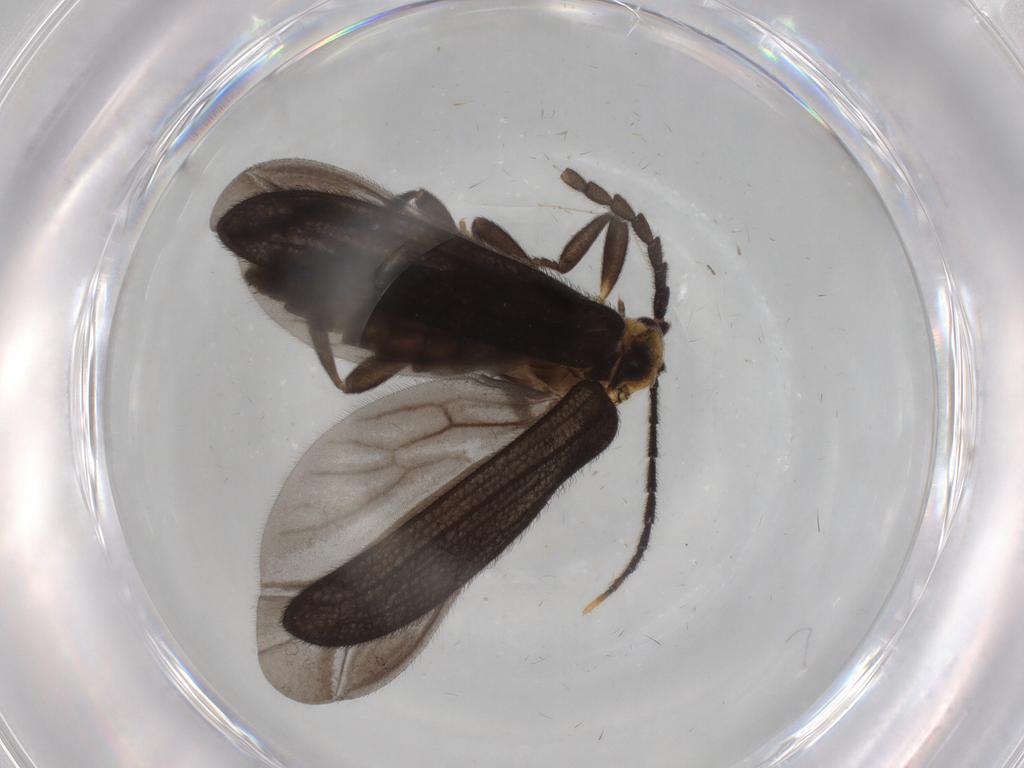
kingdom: Animalia
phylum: Arthropoda
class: Insecta
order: Coleoptera
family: Lycidae
